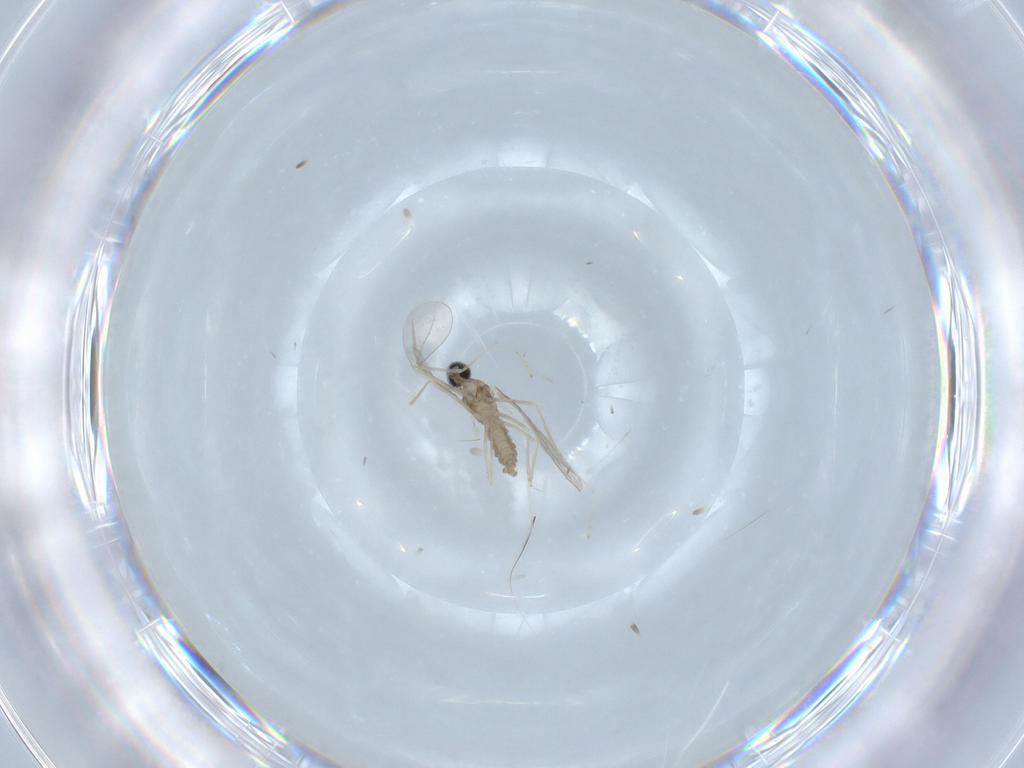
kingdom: Animalia
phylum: Arthropoda
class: Insecta
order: Diptera
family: Cecidomyiidae
